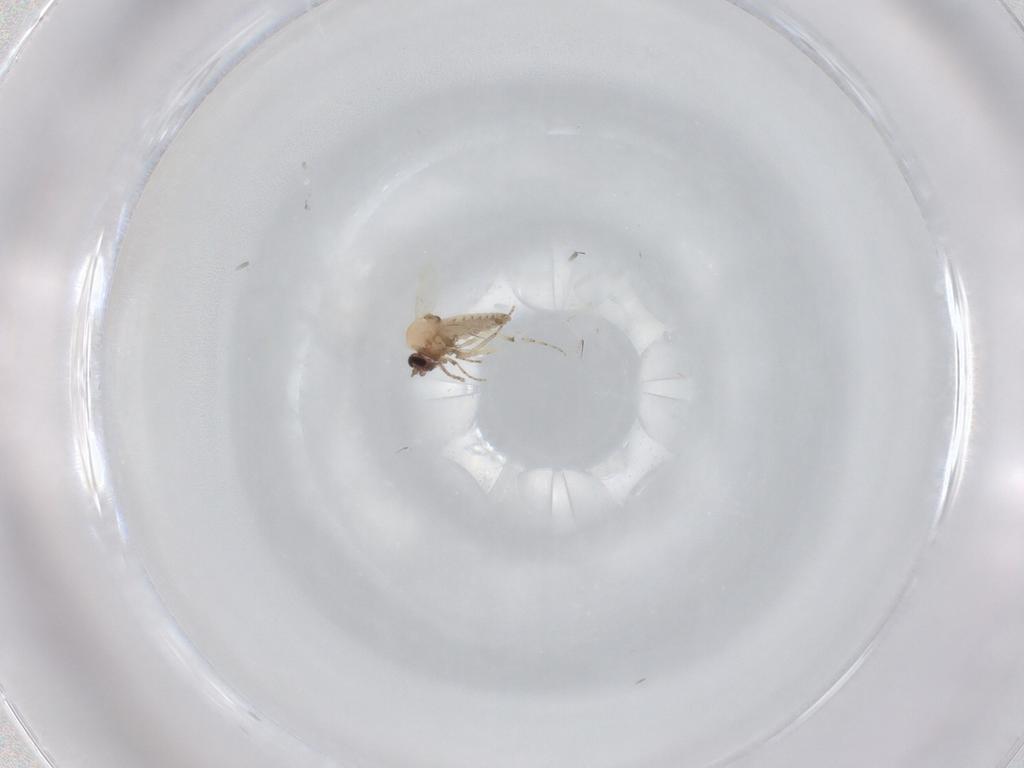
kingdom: Animalia
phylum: Arthropoda
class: Insecta
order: Diptera
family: Ceratopogonidae
